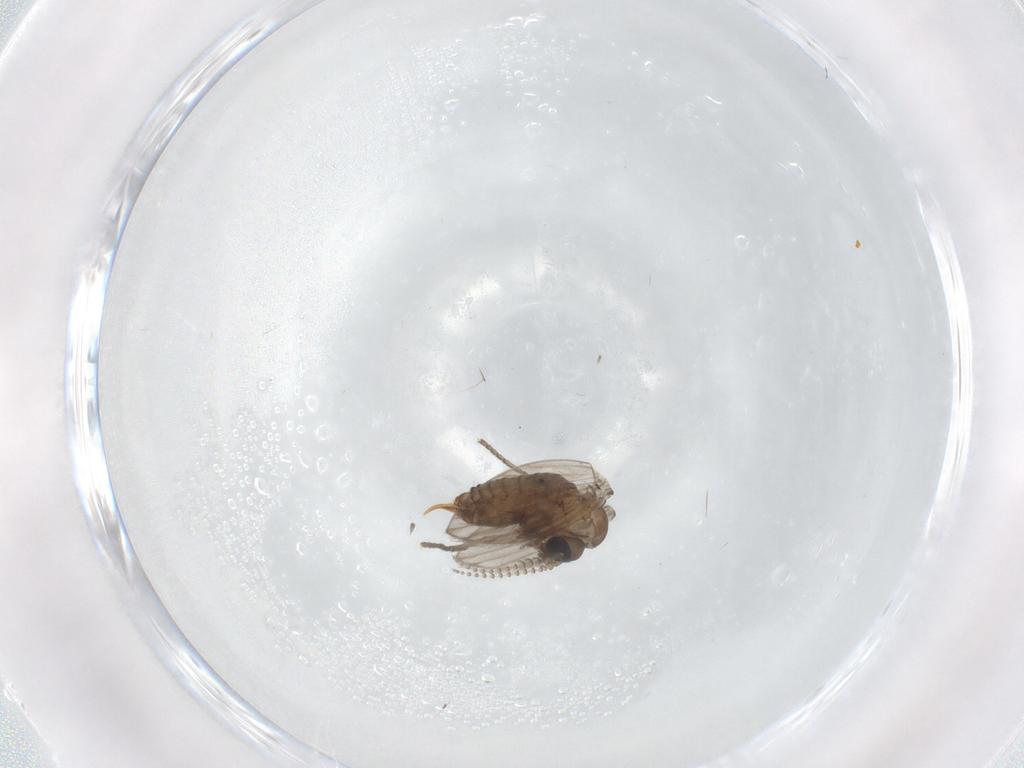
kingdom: Animalia
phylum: Arthropoda
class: Insecta
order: Diptera
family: Psychodidae
